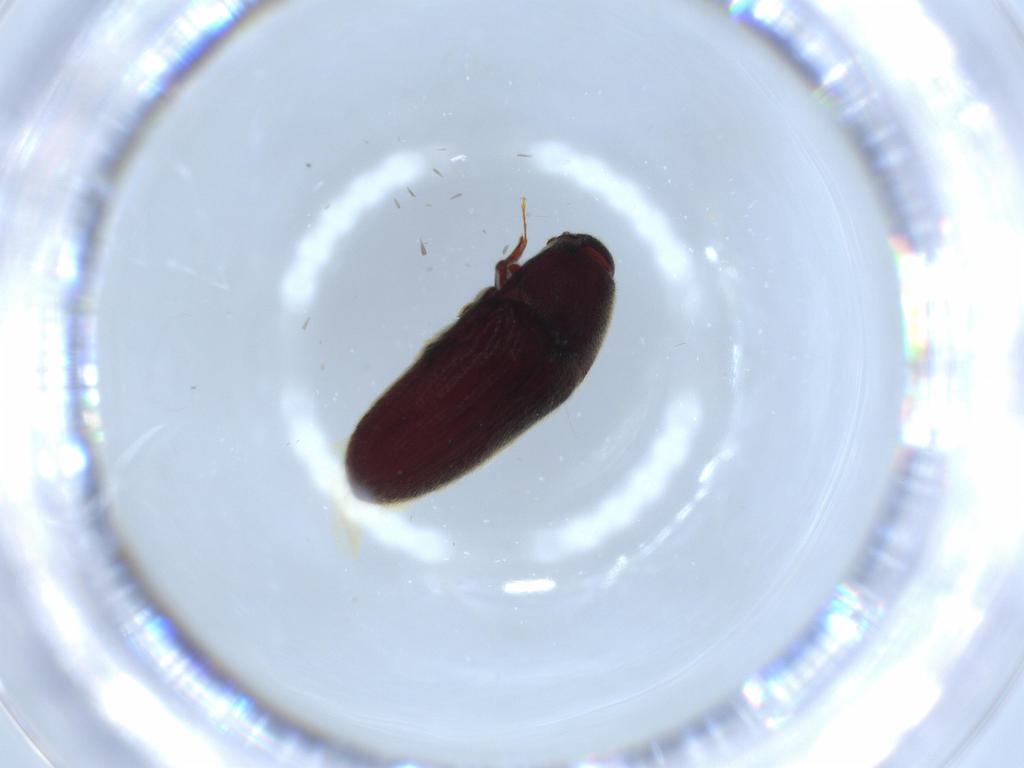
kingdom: Animalia
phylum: Arthropoda
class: Insecta
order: Coleoptera
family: Throscidae
